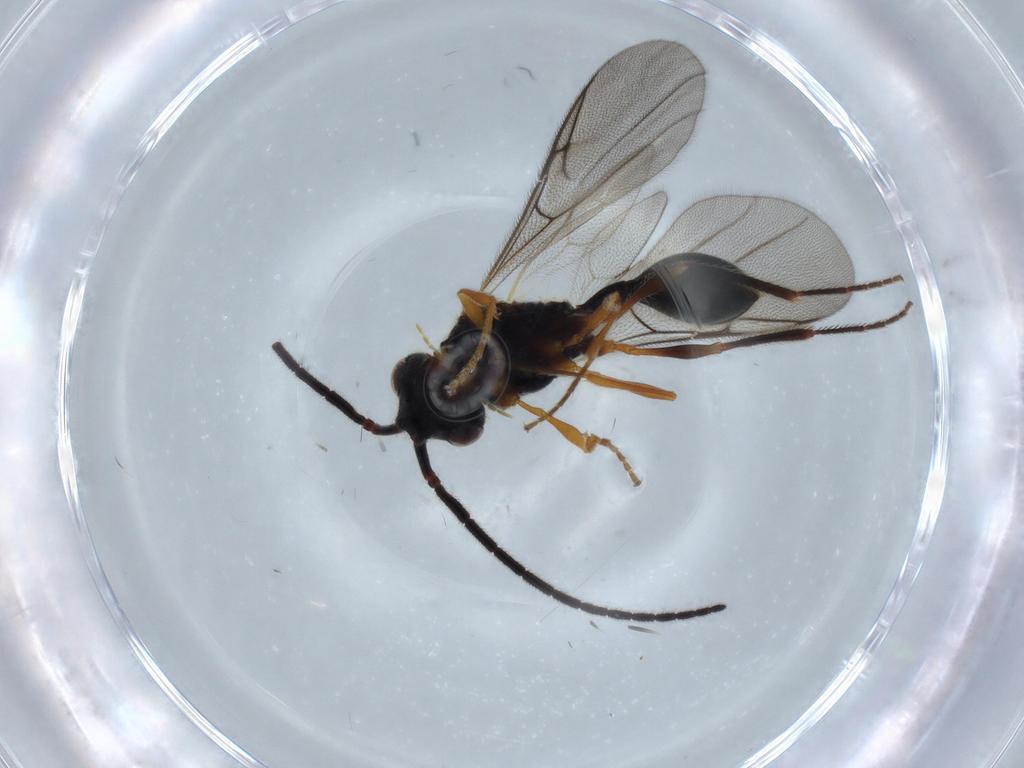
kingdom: Animalia
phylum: Arthropoda
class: Insecta
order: Hymenoptera
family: Diapriidae
